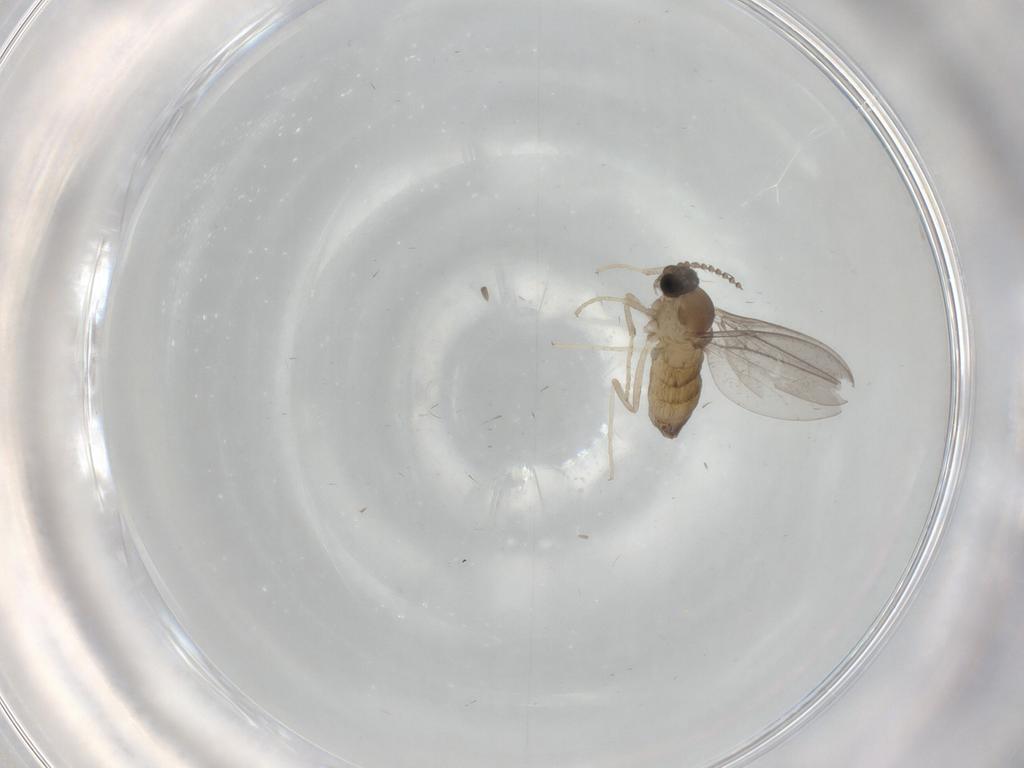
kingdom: Animalia
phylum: Arthropoda
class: Insecta
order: Diptera
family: Cecidomyiidae
